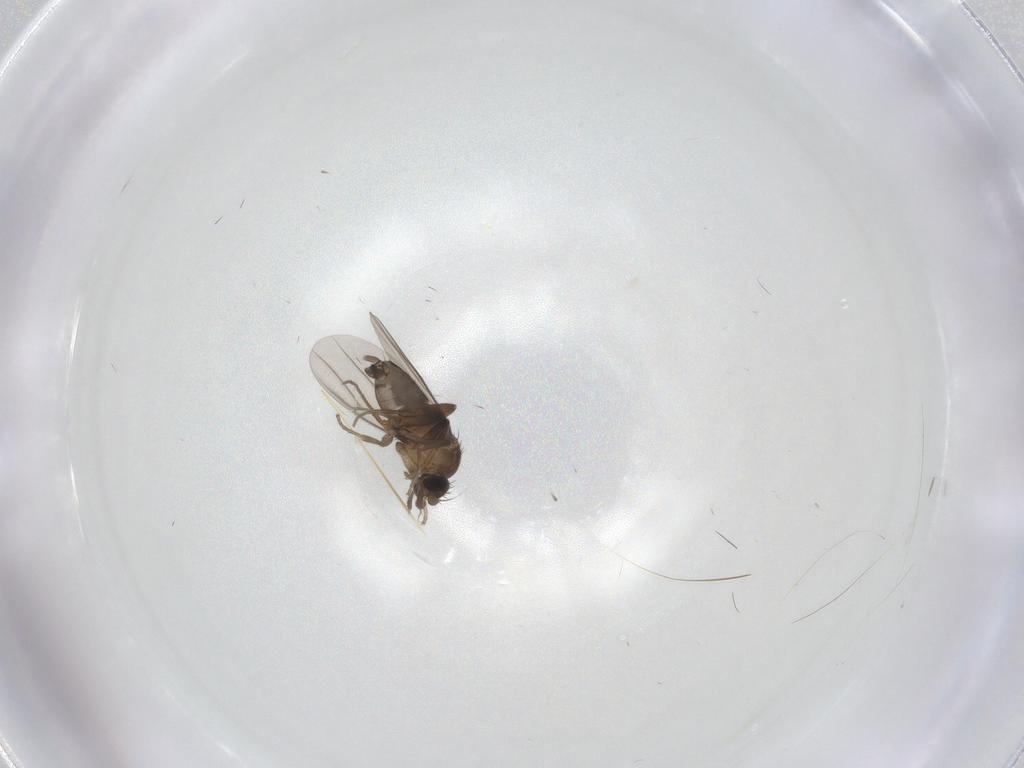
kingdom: Animalia
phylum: Arthropoda
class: Insecta
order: Diptera
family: Phoridae
